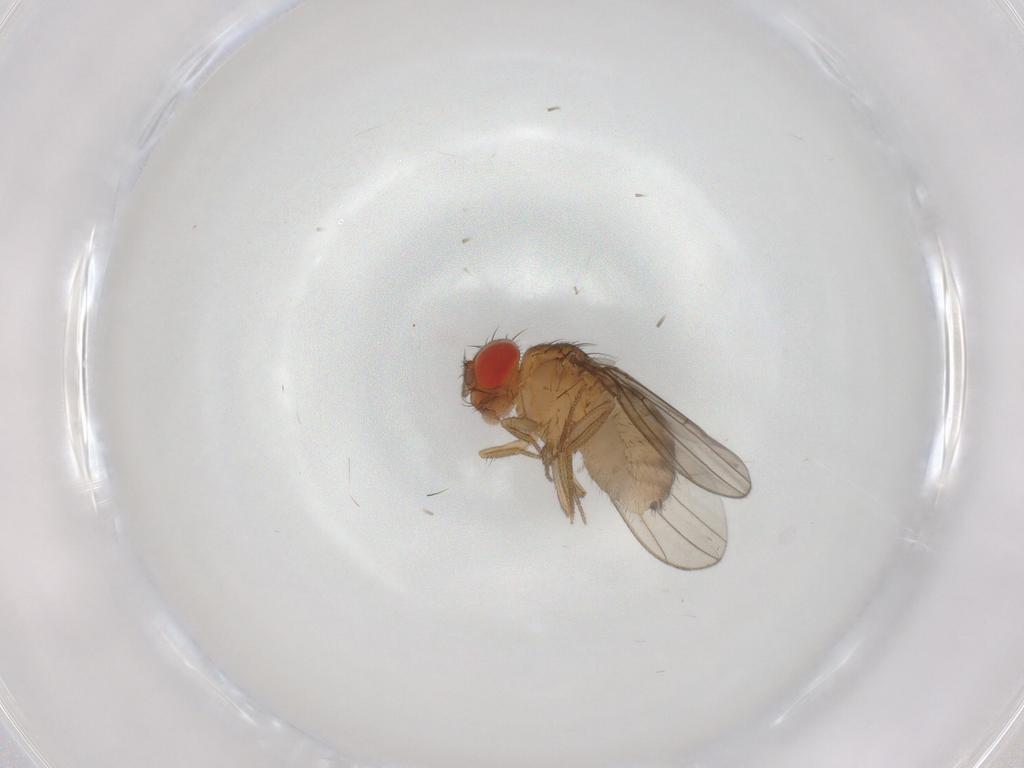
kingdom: Animalia
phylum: Arthropoda
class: Insecta
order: Diptera
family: Drosophilidae
